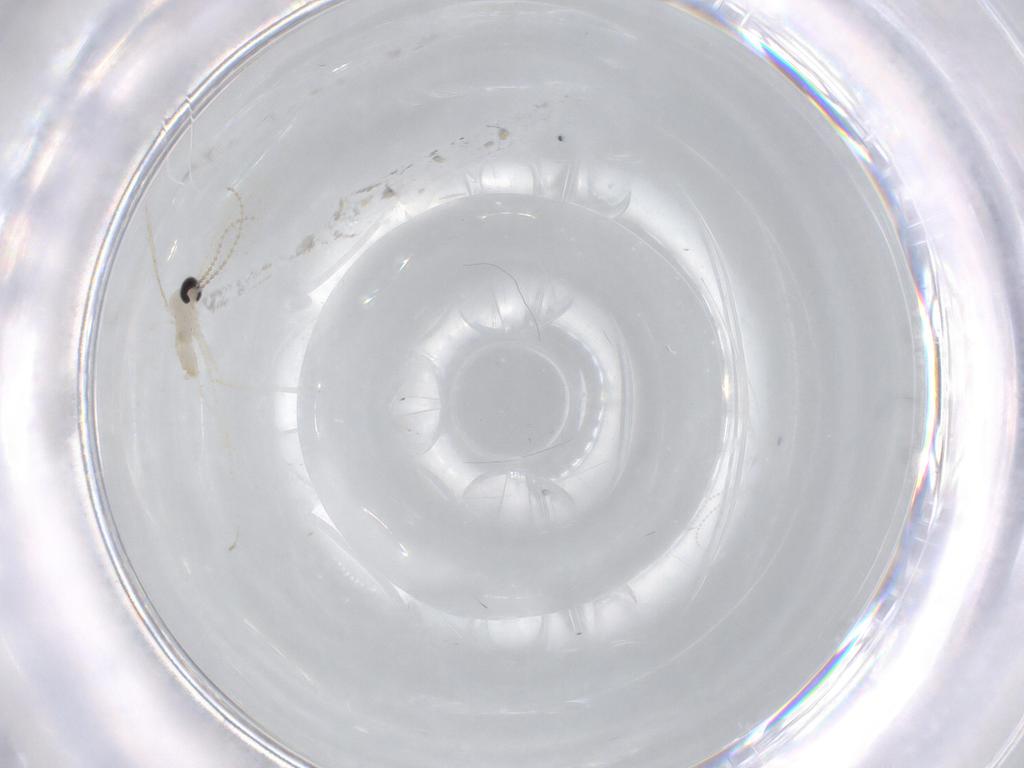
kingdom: Animalia
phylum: Arthropoda
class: Insecta
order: Diptera
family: Cecidomyiidae
